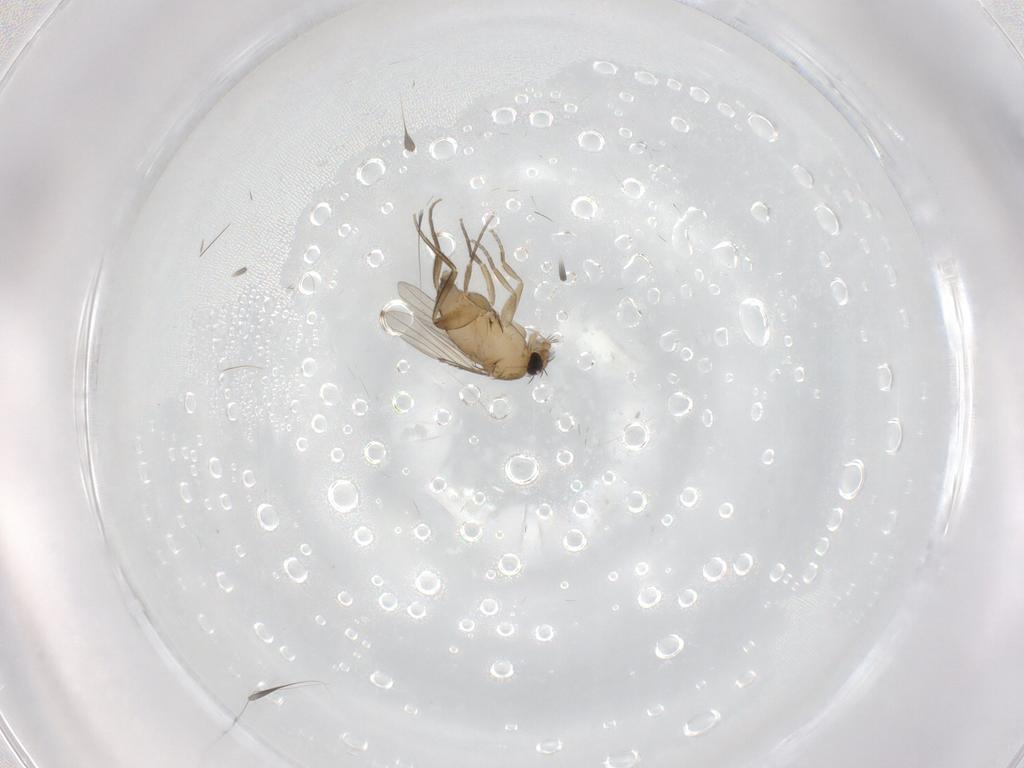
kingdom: Animalia
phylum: Arthropoda
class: Insecta
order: Diptera
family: Phoridae
